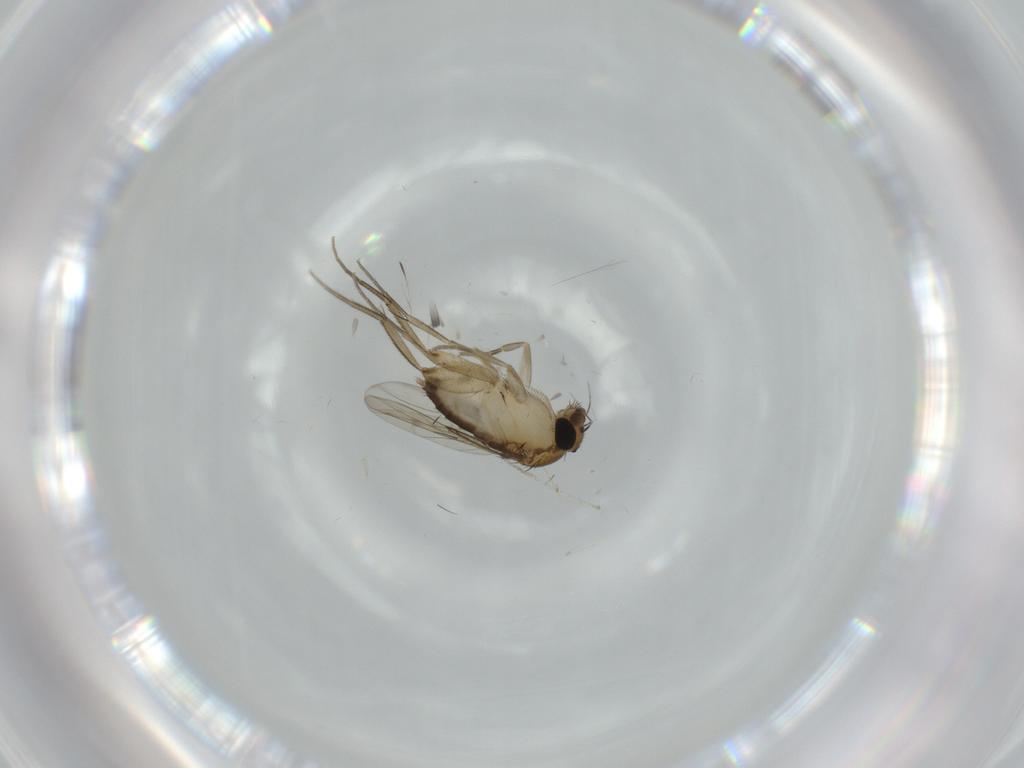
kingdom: Animalia
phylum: Arthropoda
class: Insecta
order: Diptera
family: Phoridae
